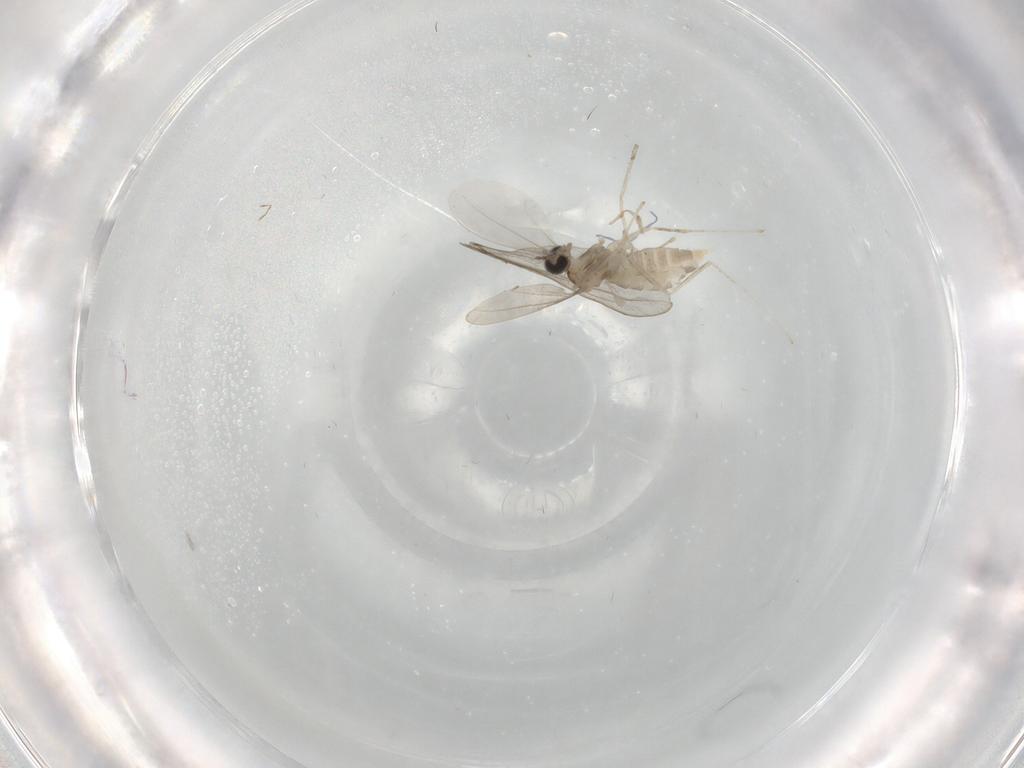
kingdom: Animalia
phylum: Arthropoda
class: Insecta
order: Diptera
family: Cecidomyiidae
